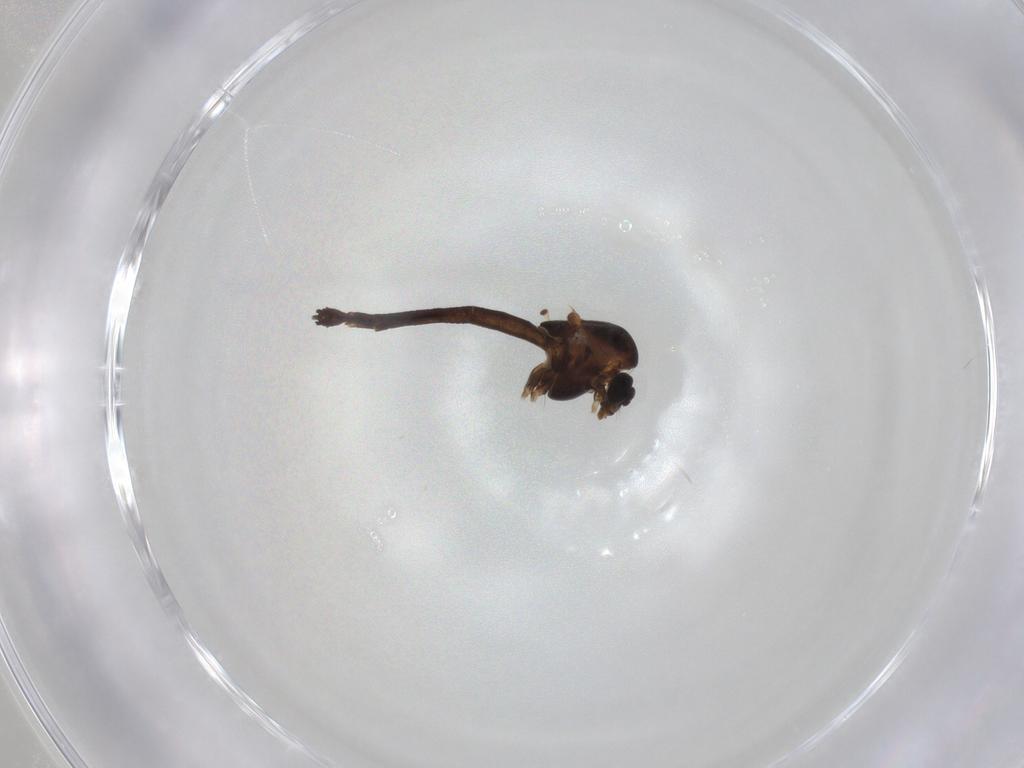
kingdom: Animalia
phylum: Arthropoda
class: Insecta
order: Diptera
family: Chironomidae
